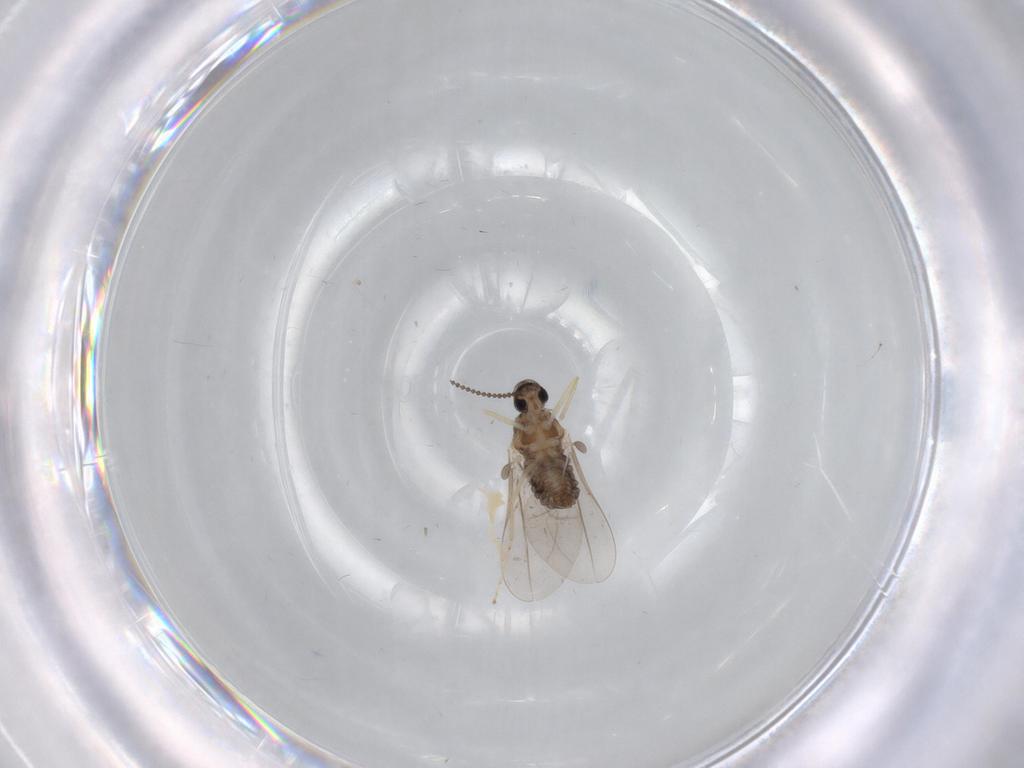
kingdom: Animalia
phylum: Arthropoda
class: Insecta
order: Diptera
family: Cecidomyiidae
